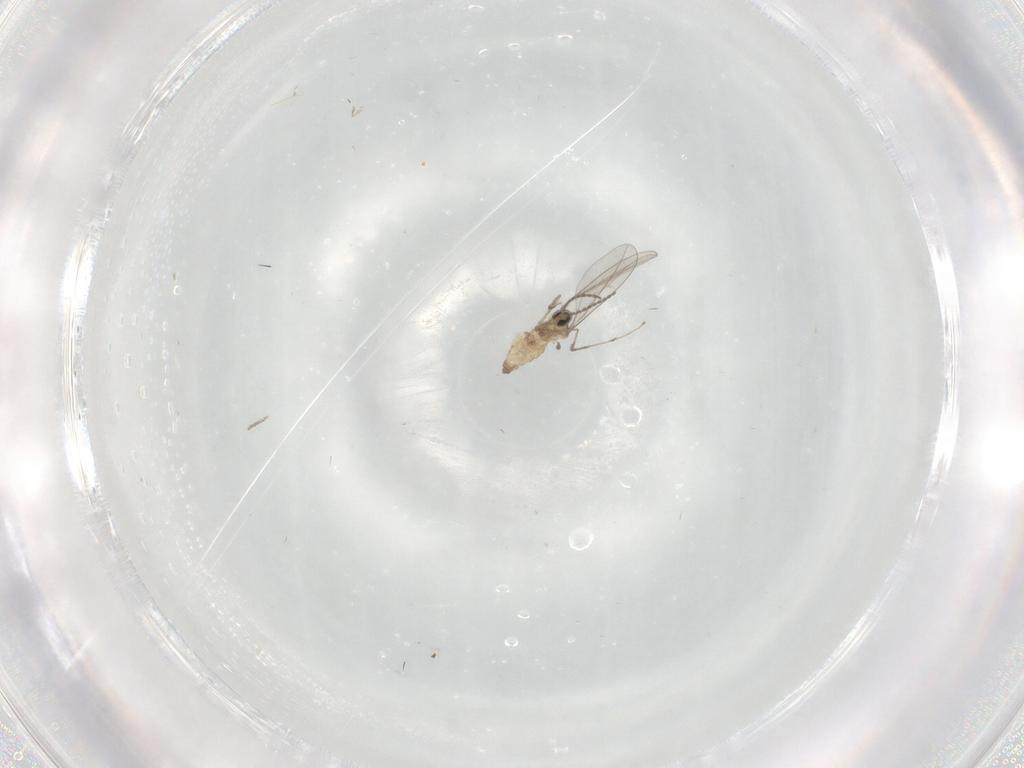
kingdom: Animalia
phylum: Arthropoda
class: Insecta
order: Diptera
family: Cecidomyiidae
